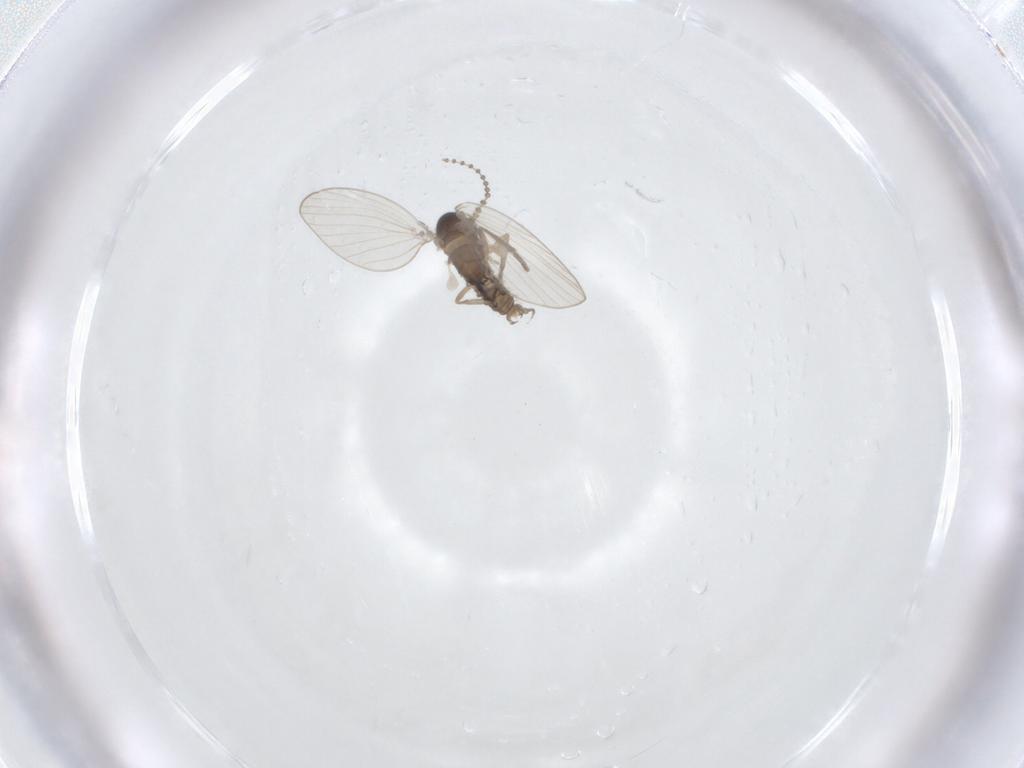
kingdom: Animalia
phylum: Arthropoda
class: Insecta
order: Diptera
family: Psychodidae
